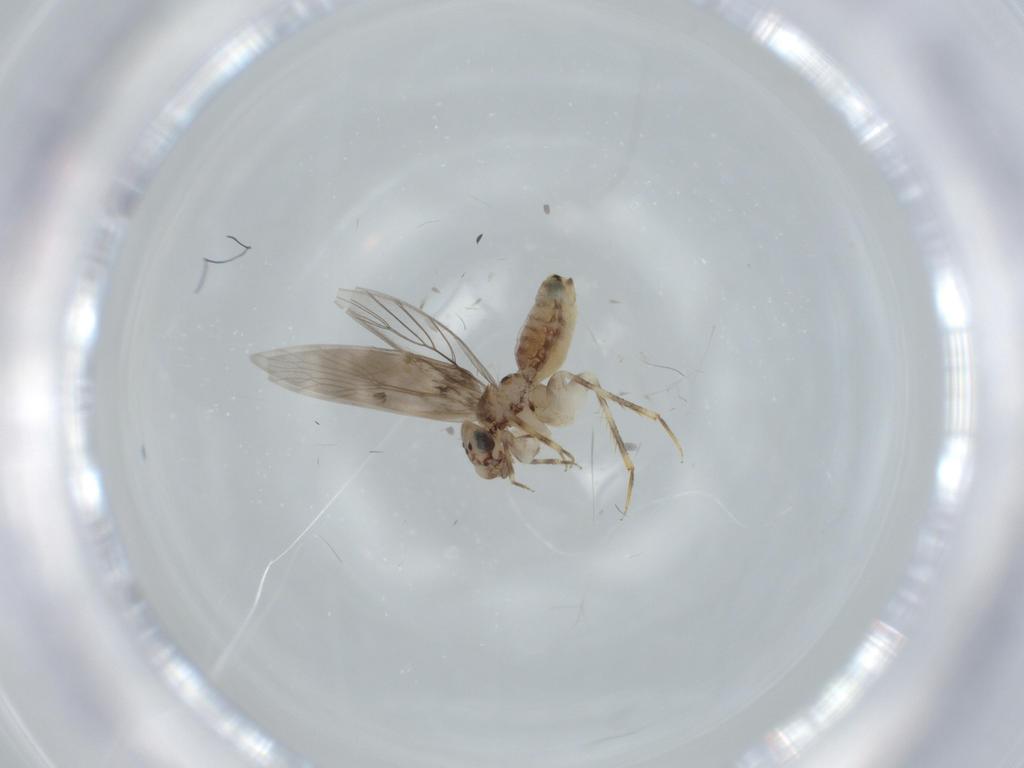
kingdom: Animalia
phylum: Arthropoda
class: Insecta
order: Psocodea
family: Lepidopsocidae
